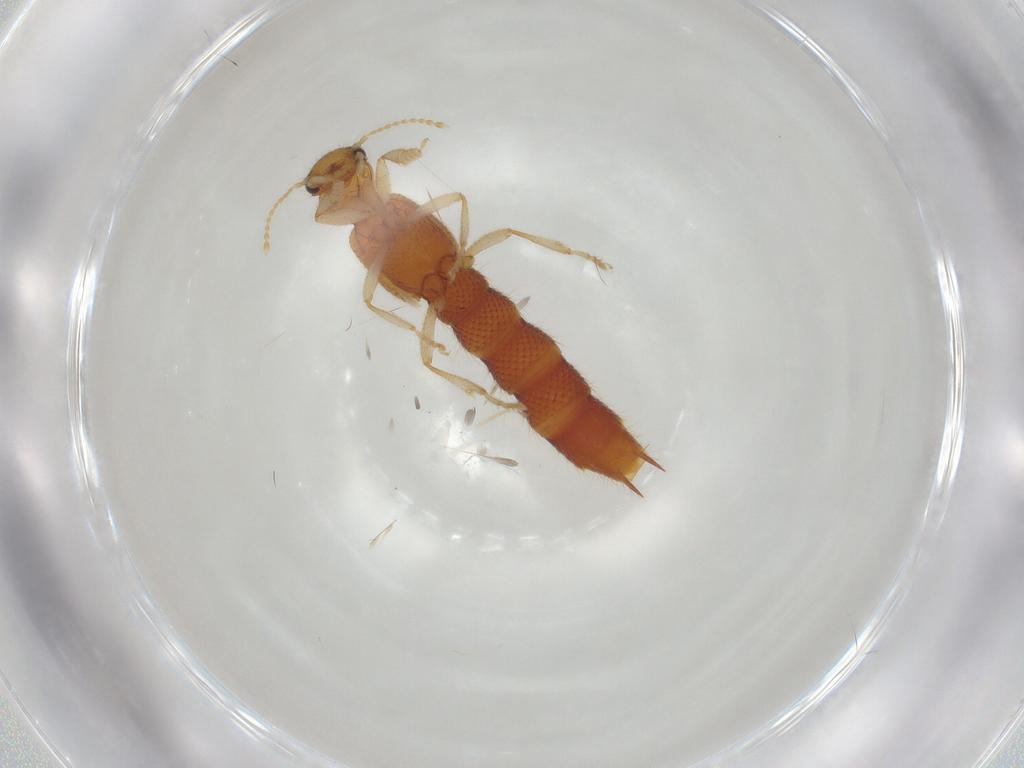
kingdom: Animalia
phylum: Arthropoda
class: Insecta
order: Coleoptera
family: Staphylinidae
